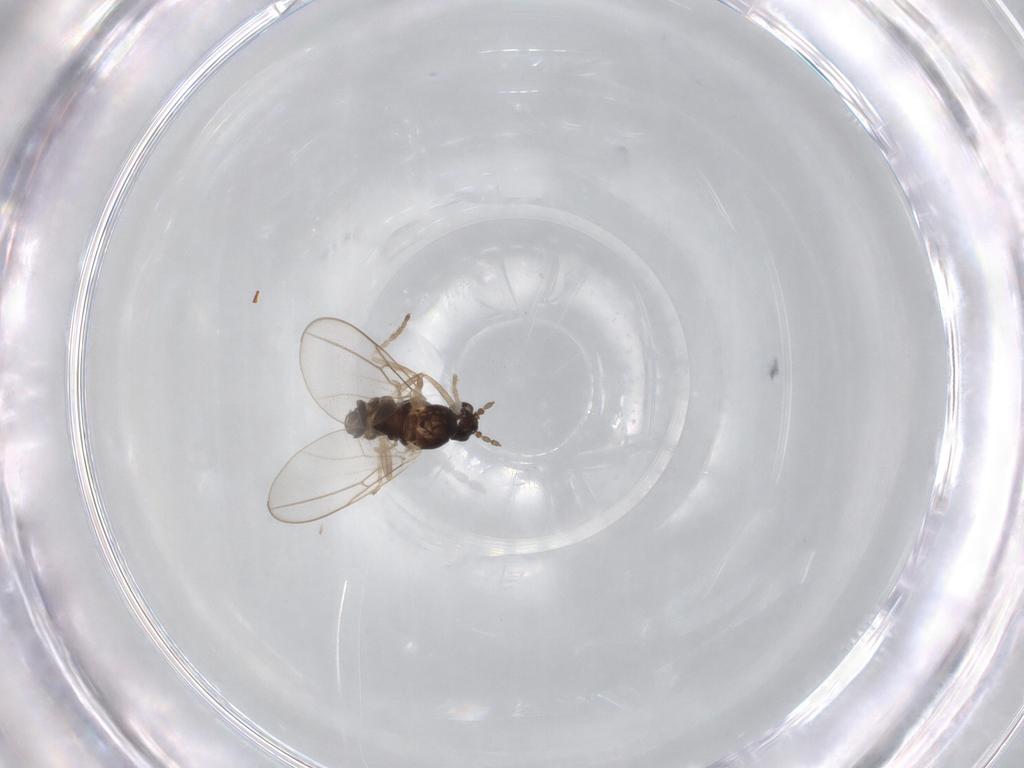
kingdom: Animalia
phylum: Arthropoda
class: Insecta
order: Diptera
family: Chironomidae
